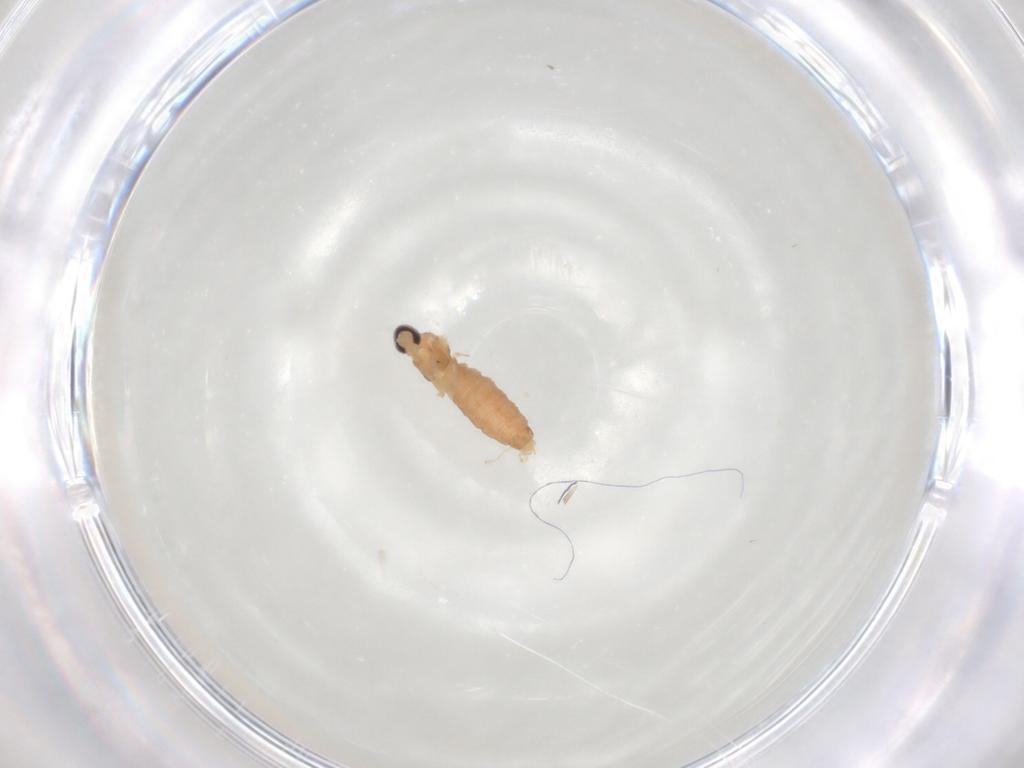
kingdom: Animalia
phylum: Arthropoda
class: Insecta
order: Diptera
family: Cecidomyiidae
